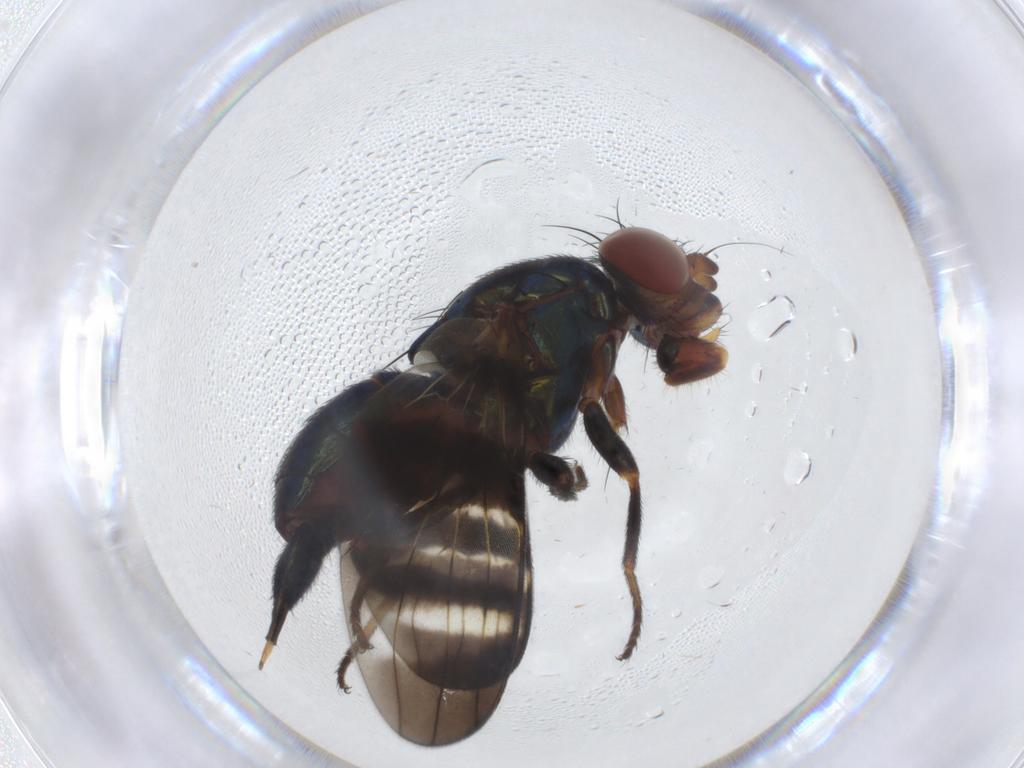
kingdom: Animalia
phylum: Arthropoda
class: Insecta
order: Diptera
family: Ulidiidae
